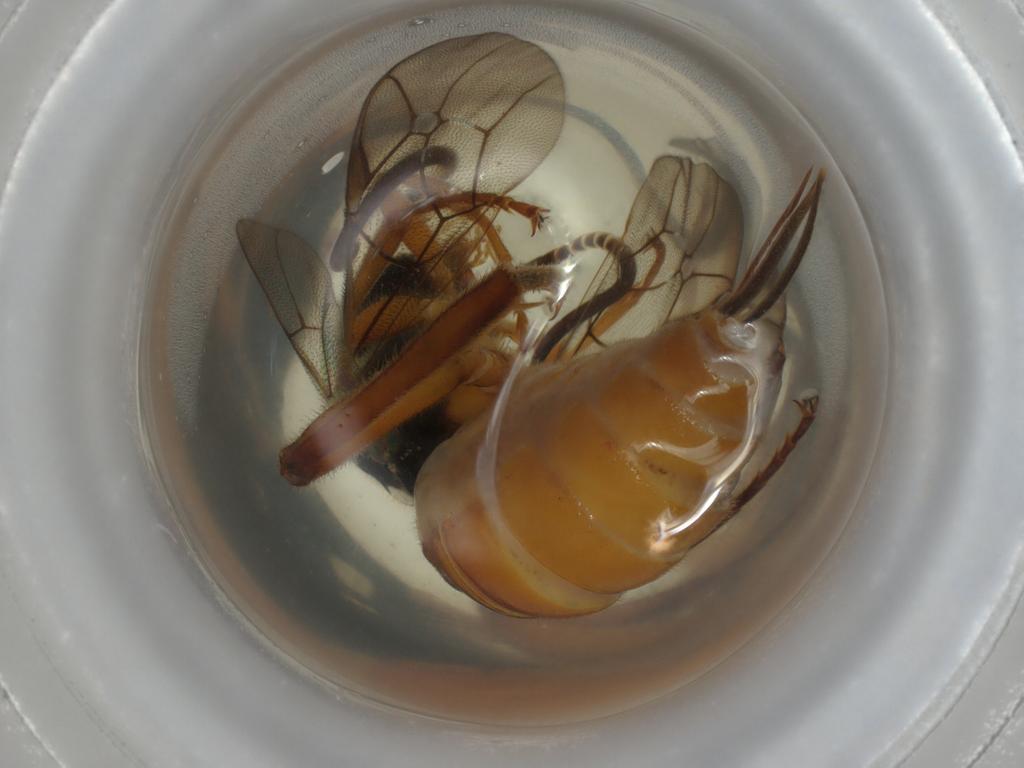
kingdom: Animalia
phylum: Arthropoda
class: Insecta
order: Hymenoptera
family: Ichneumonidae
